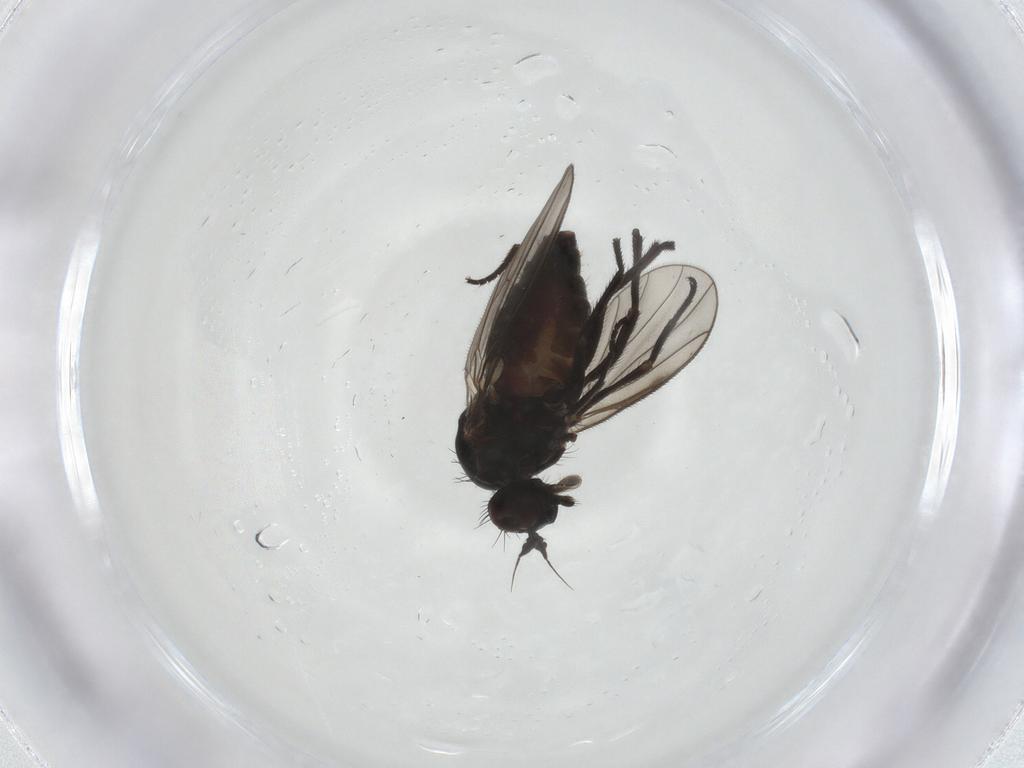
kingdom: Animalia
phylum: Arthropoda
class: Insecta
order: Diptera
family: Dolichopodidae
